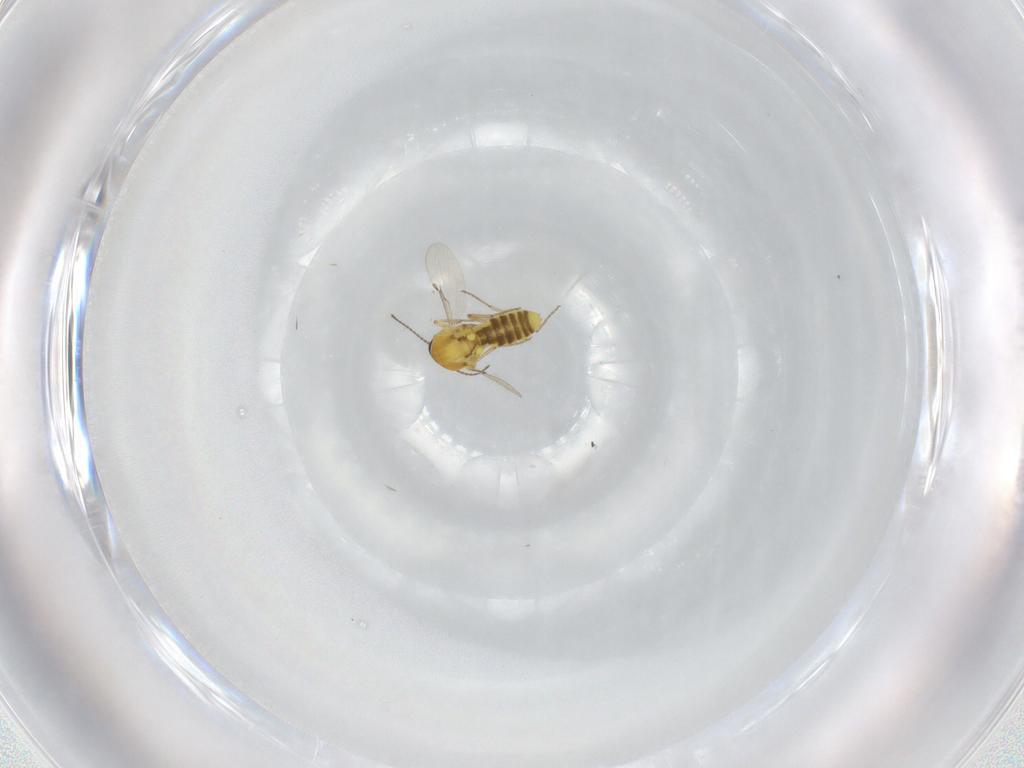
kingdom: Animalia
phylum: Arthropoda
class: Insecta
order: Diptera
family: Ceratopogonidae
